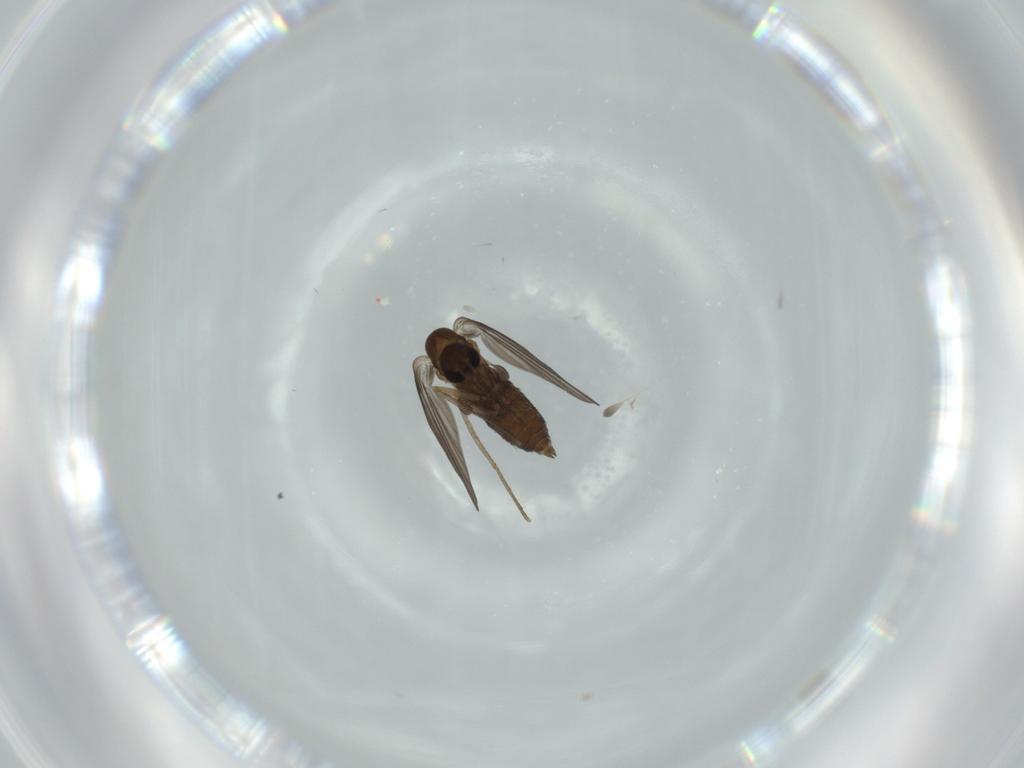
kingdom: Animalia
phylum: Arthropoda
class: Insecta
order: Diptera
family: Psychodidae
